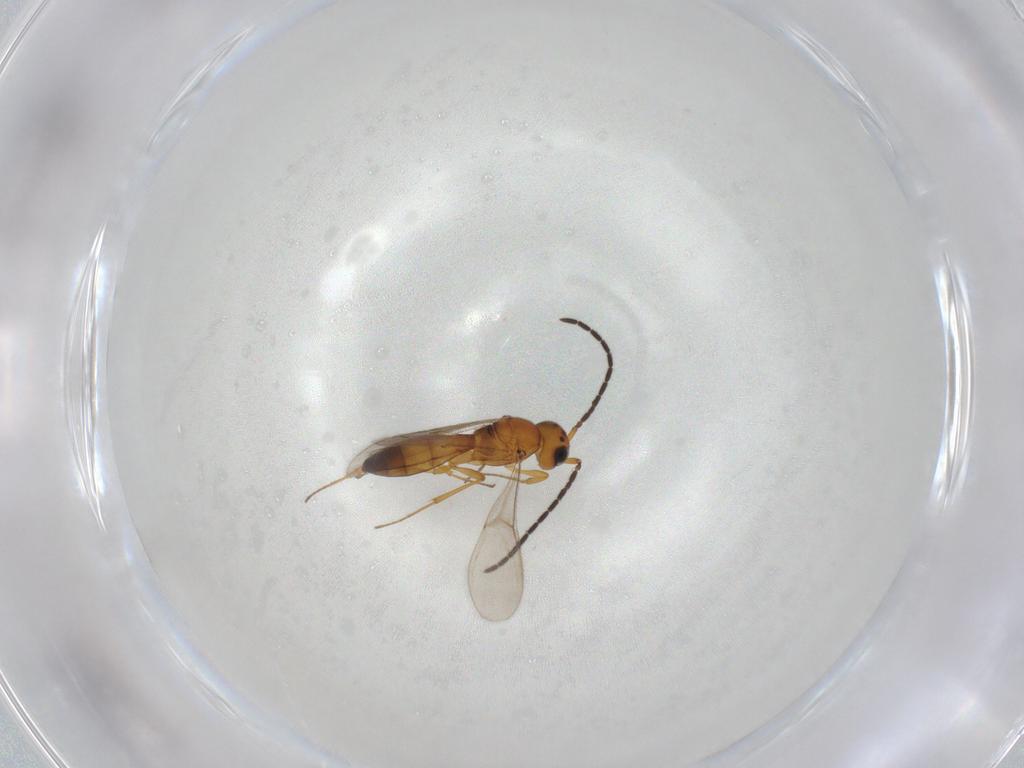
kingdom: Animalia
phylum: Arthropoda
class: Insecta
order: Hymenoptera
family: Scelionidae
